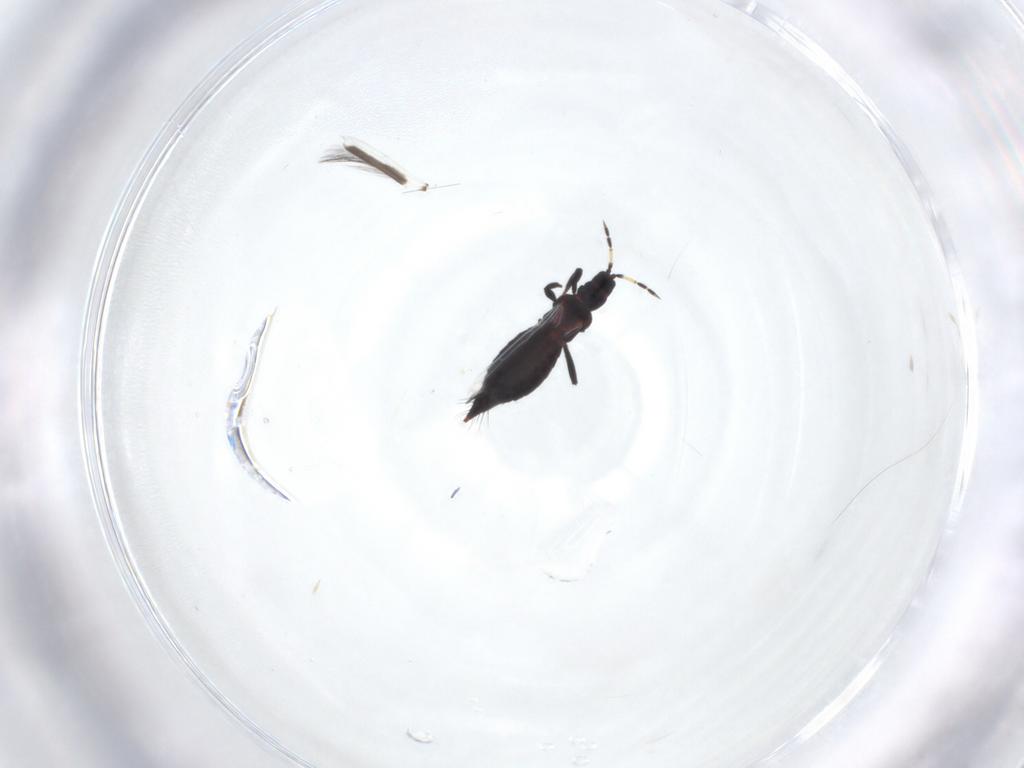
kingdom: Animalia
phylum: Arthropoda
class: Insecta
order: Thysanoptera
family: Aeolothripidae
